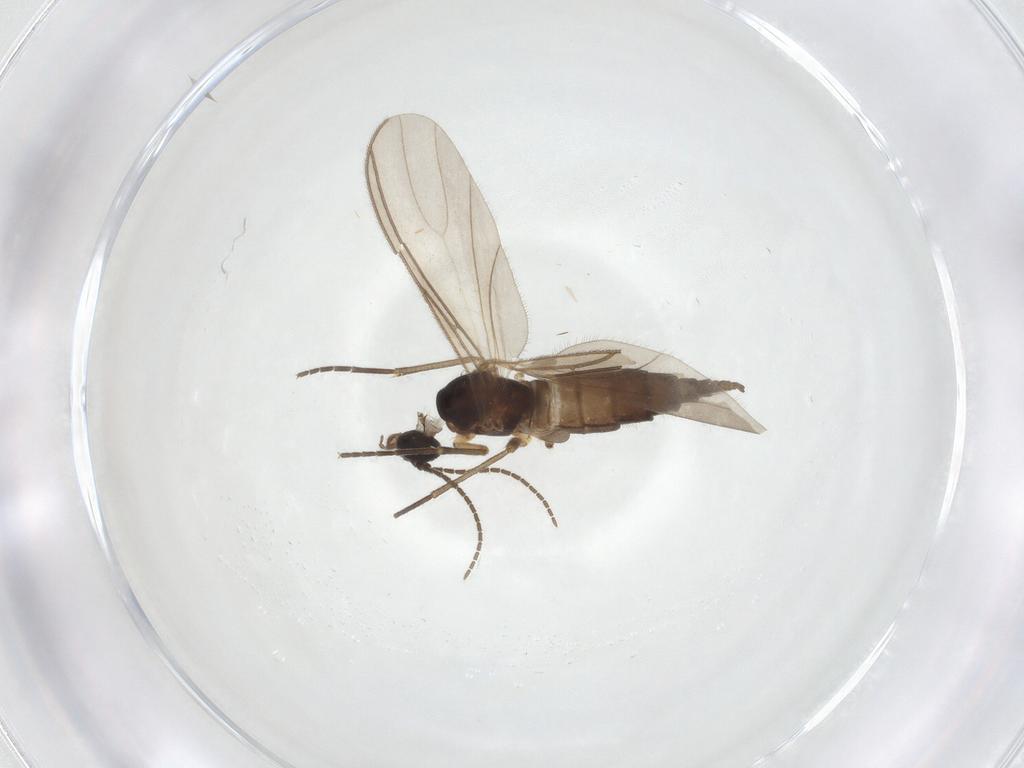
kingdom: Animalia
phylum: Arthropoda
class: Insecta
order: Diptera
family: Sciaridae
